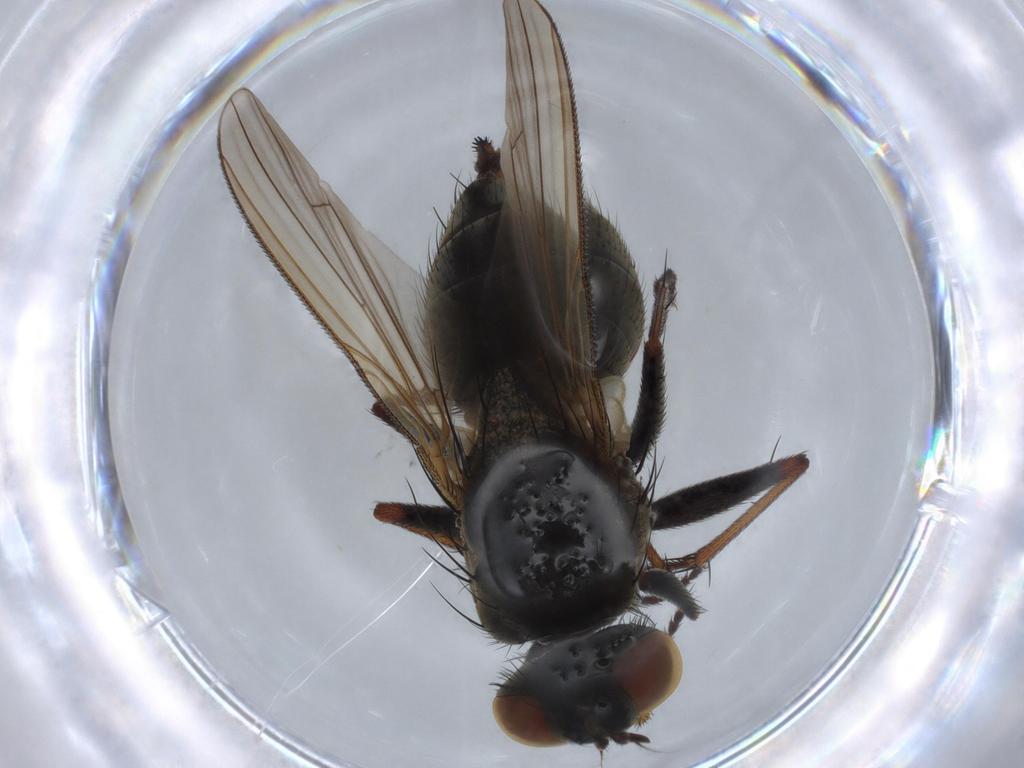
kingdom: Animalia
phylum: Arthropoda
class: Insecta
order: Diptera
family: Muscidae
